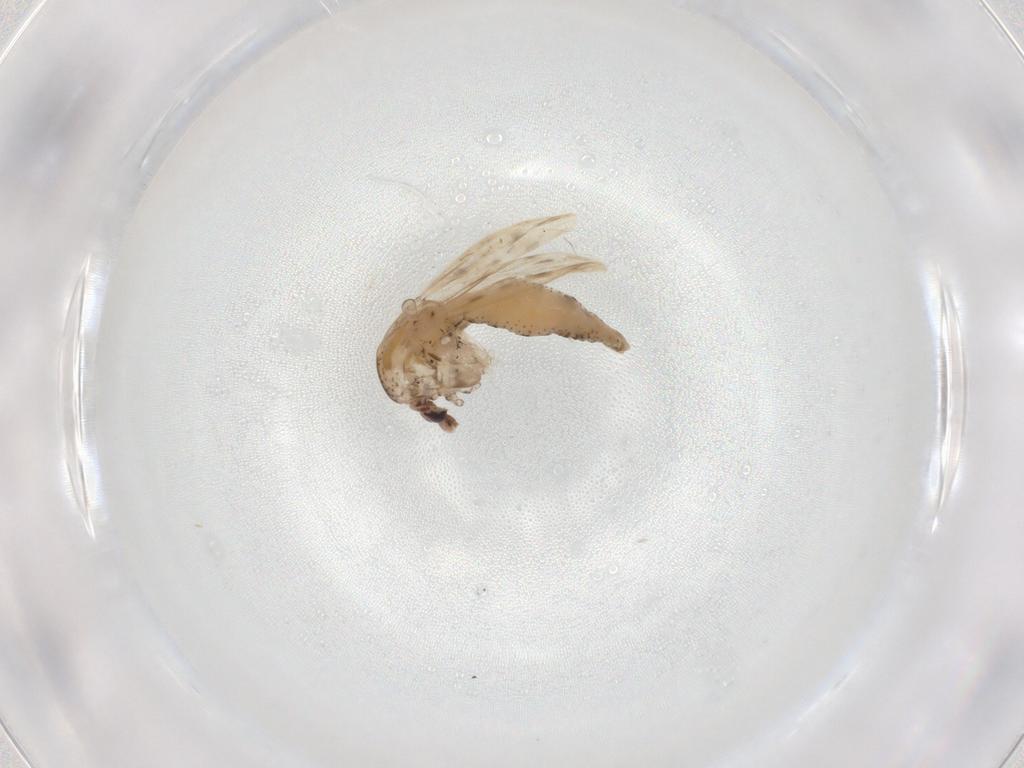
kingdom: Animalia
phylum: Arthropoda
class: Insecta
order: Diptera
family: Chaoboridae
